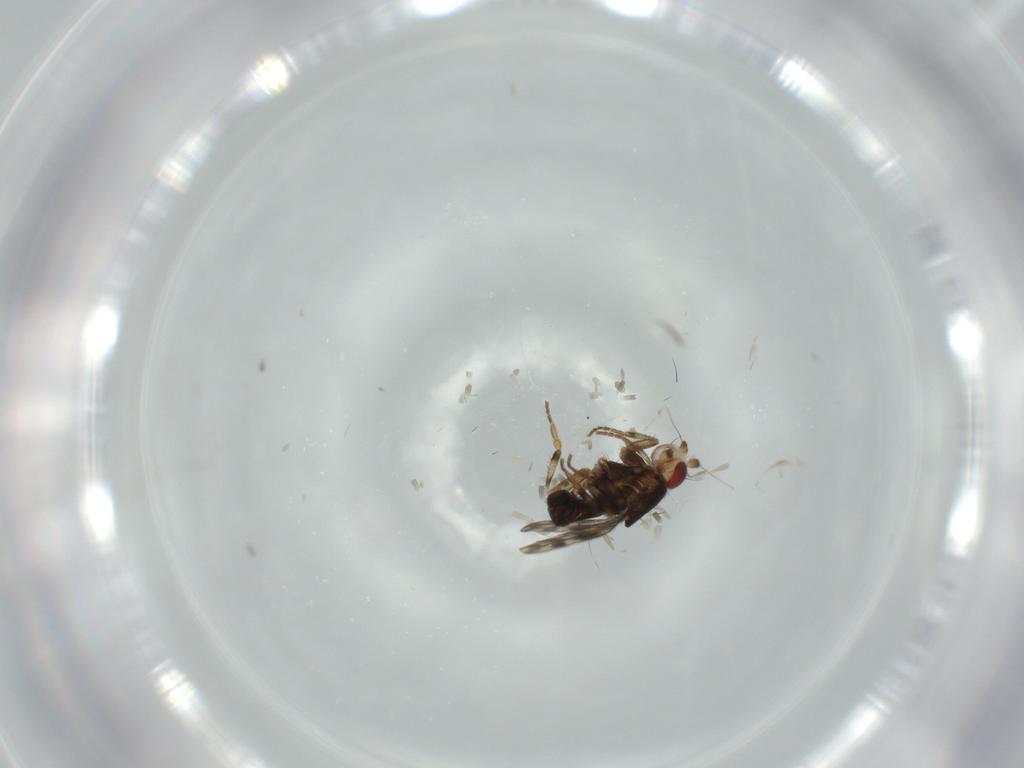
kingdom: Animalia
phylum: Arthropoda
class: Insecta
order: Diptera
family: Sphaeroceridae
